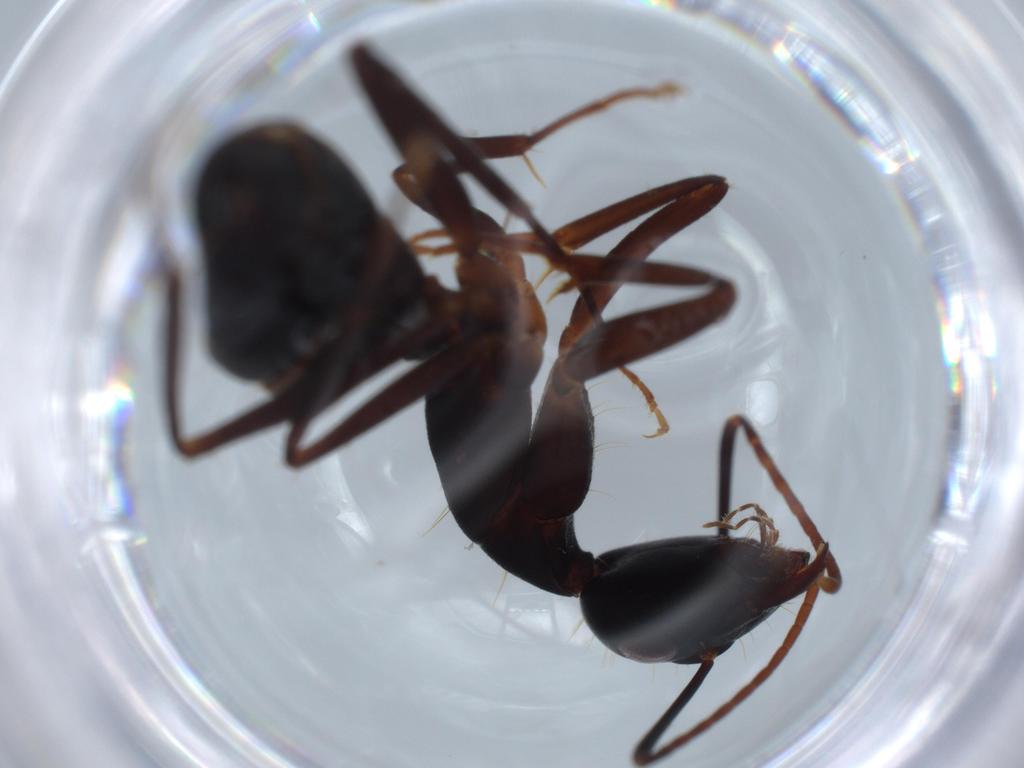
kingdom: Animalia
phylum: Arthropoda
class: Insecta
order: Hymenoptera
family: Formicidae
